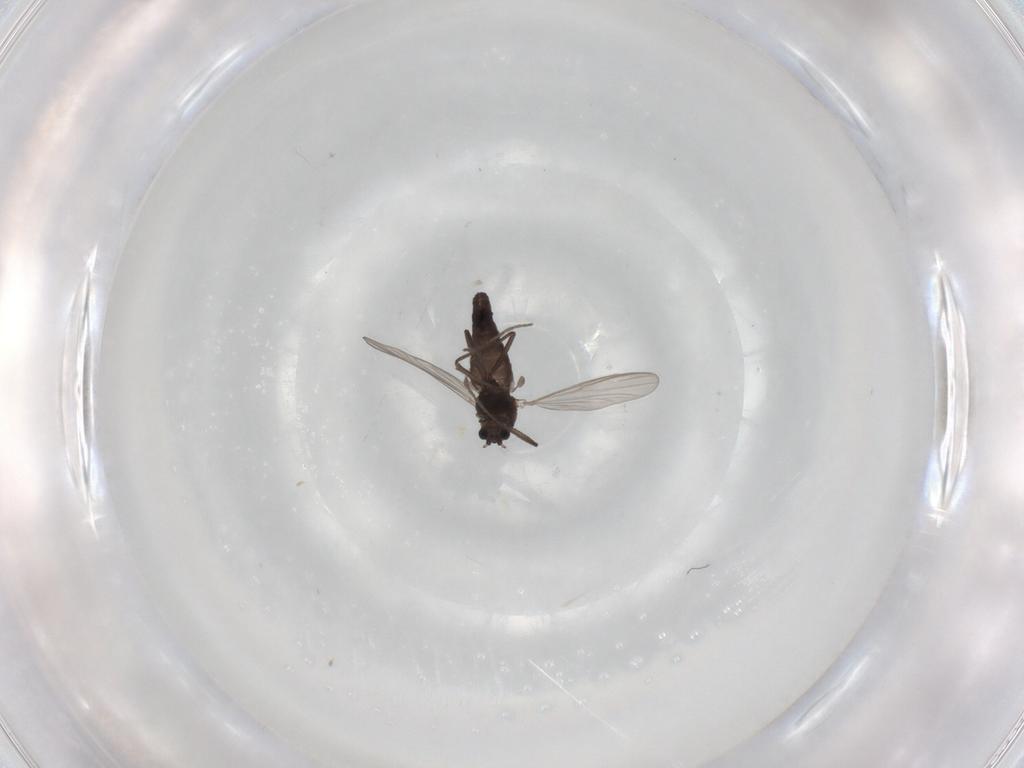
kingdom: Animalia
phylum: Arthropoda
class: Insecta
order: Diptera
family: Chironomidae
